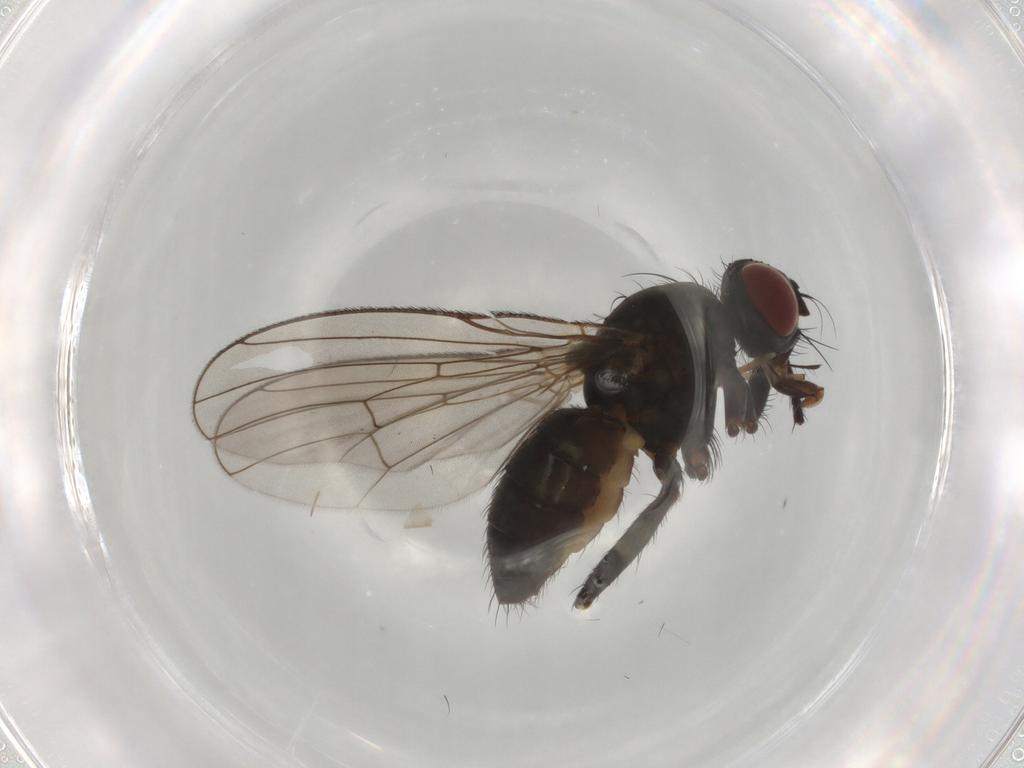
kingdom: Animalia
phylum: Arthropoda
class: Insecta
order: Diptera
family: Muscidae
